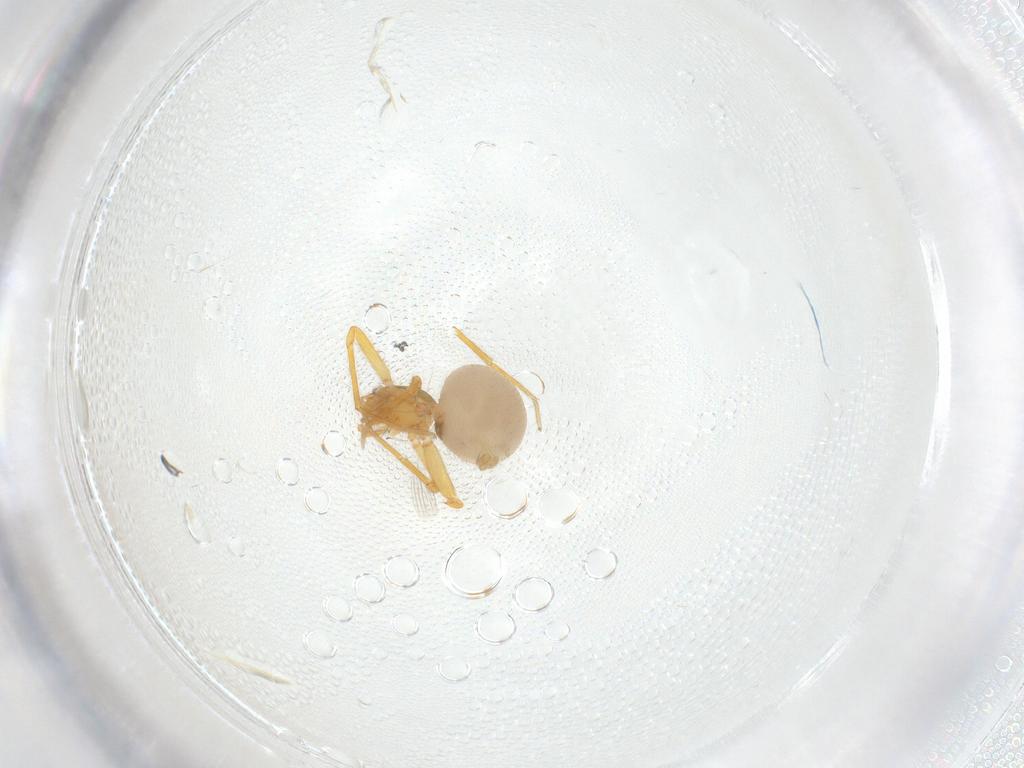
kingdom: Animalia
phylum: Arthropoda
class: Arachnida
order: Araneae
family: Oonopidae
